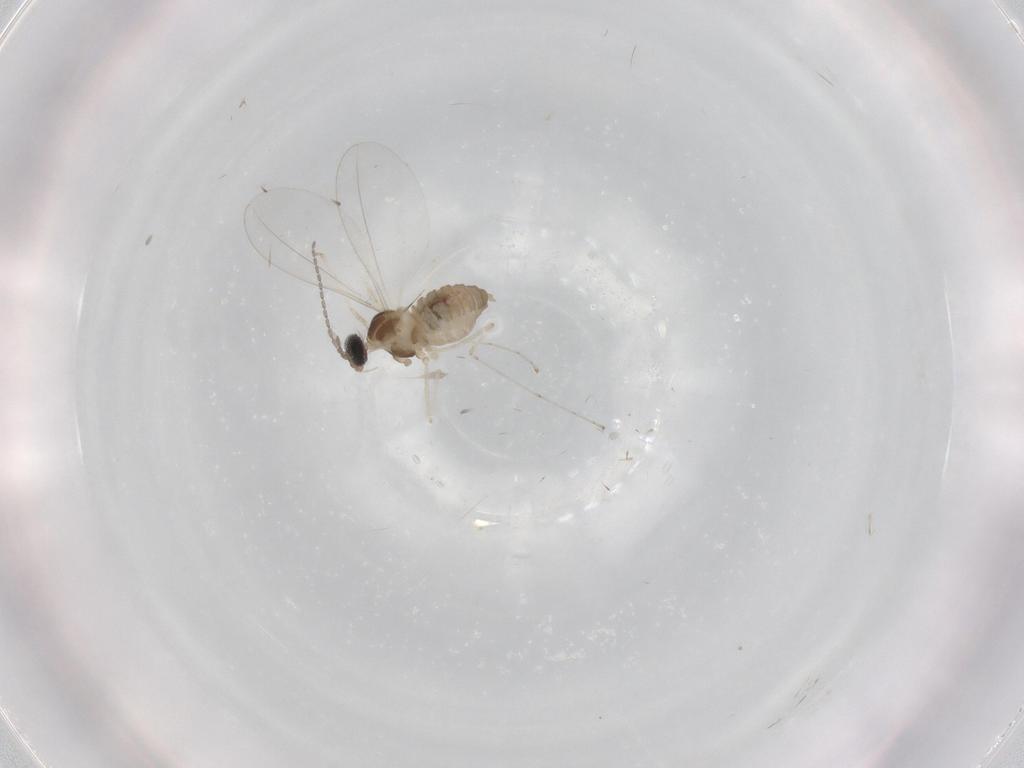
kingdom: Animalia
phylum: Arthropoda
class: Insecta
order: Diptera
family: Cecidomyiidae
